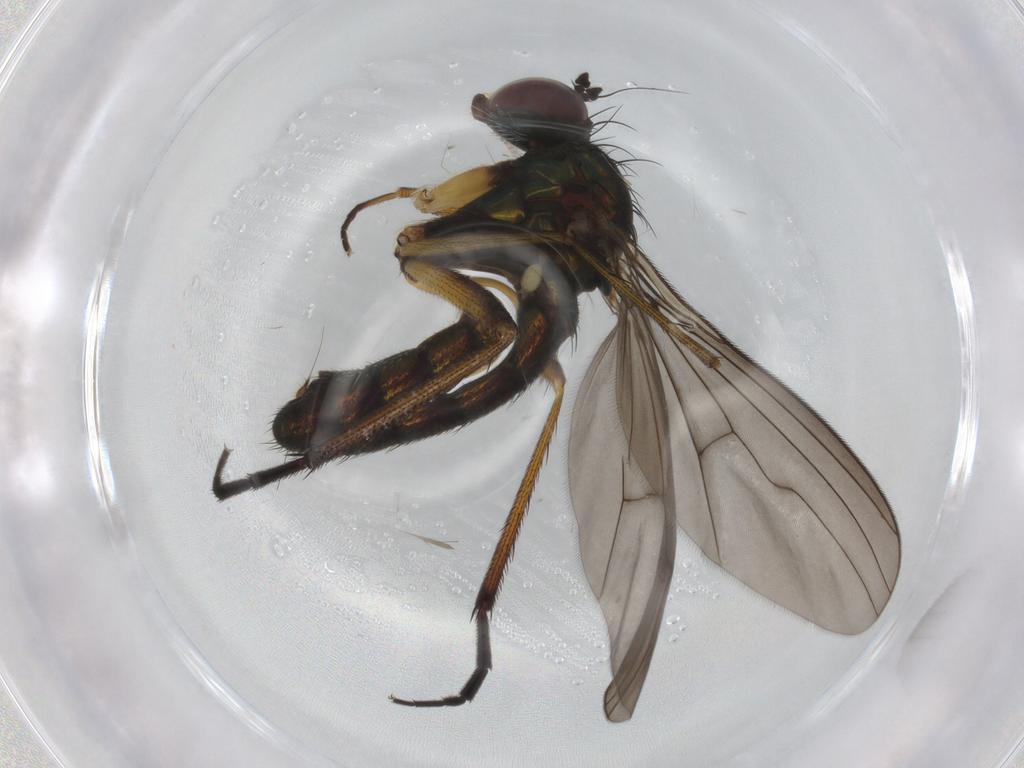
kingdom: Animalia
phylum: Arthropoda
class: Insecta
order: Diptera
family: Dolichopodidae
